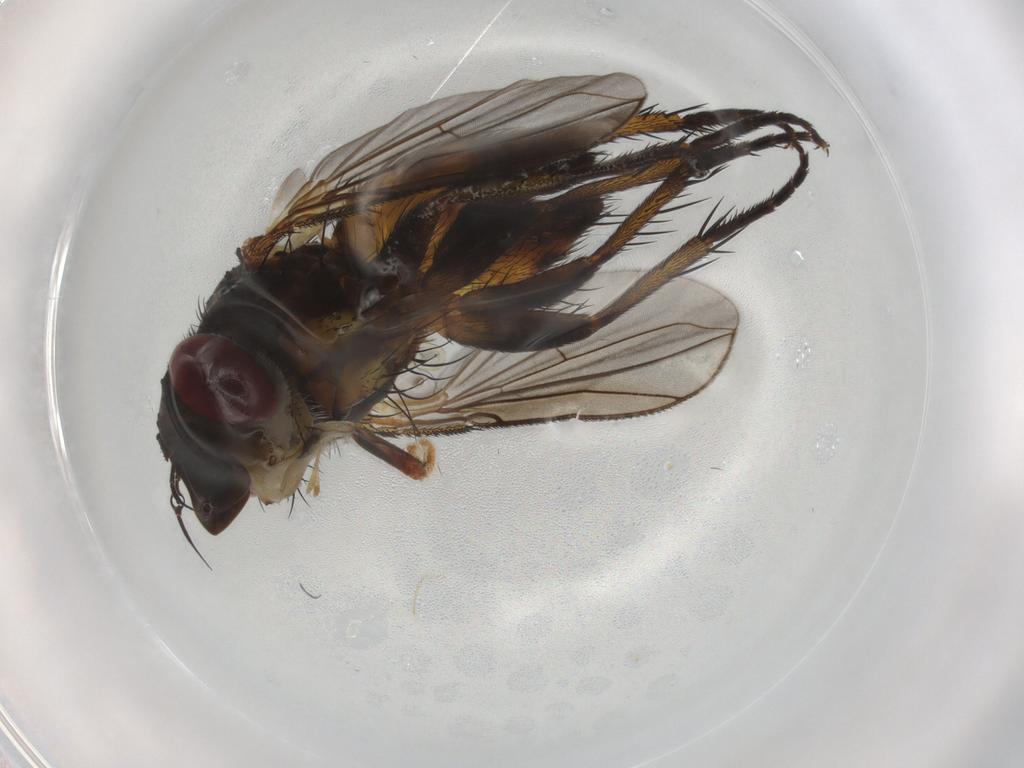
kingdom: Animalia
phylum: Arthropoda
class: Insecta
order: Diptera
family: Tachinidae
